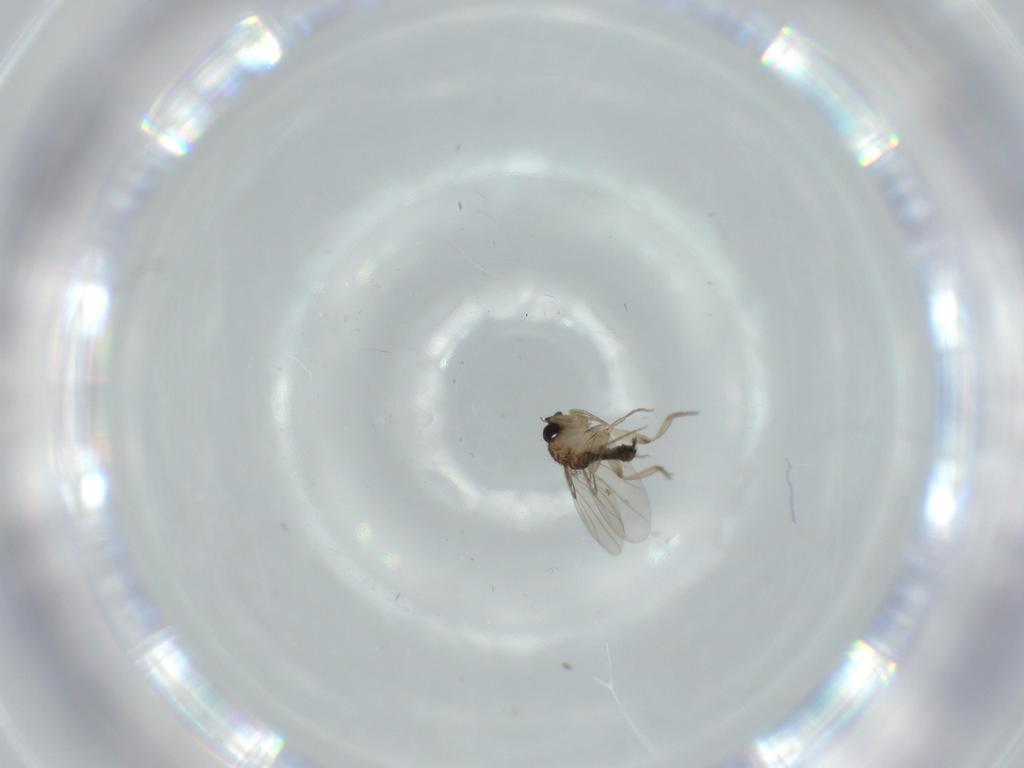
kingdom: Animalia
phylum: Arthropoda
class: Insecta
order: Diptera
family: Phoridae
